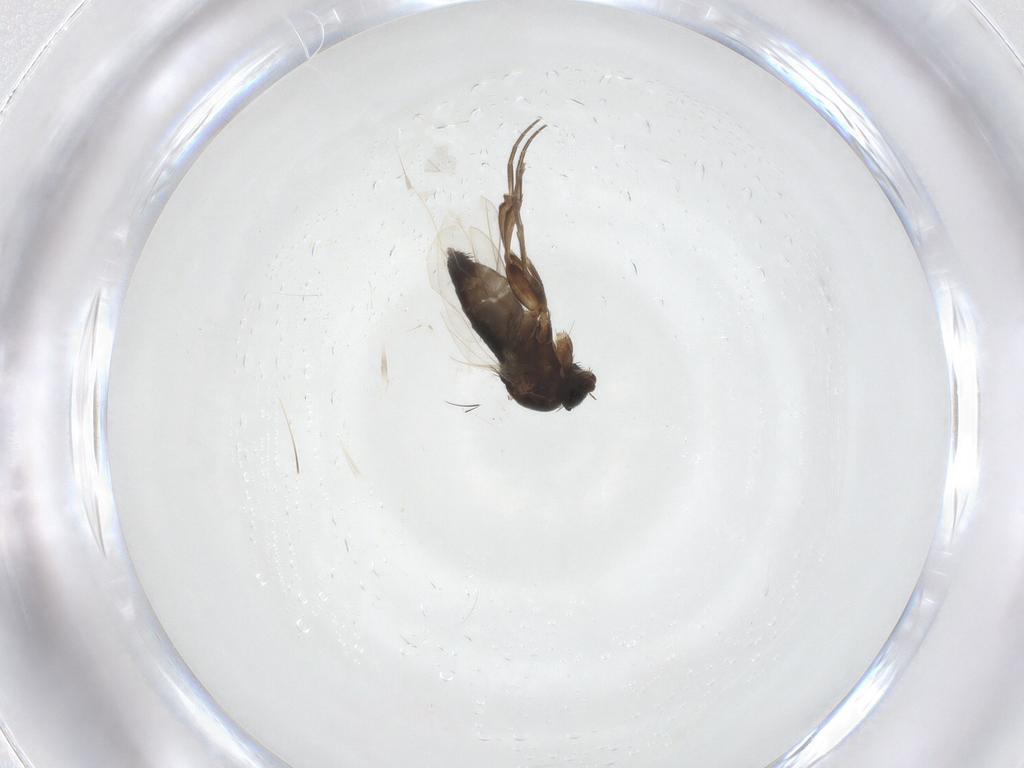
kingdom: Animalia
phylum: Arthropoda
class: Insecta
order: Diptera
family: Phoridae
